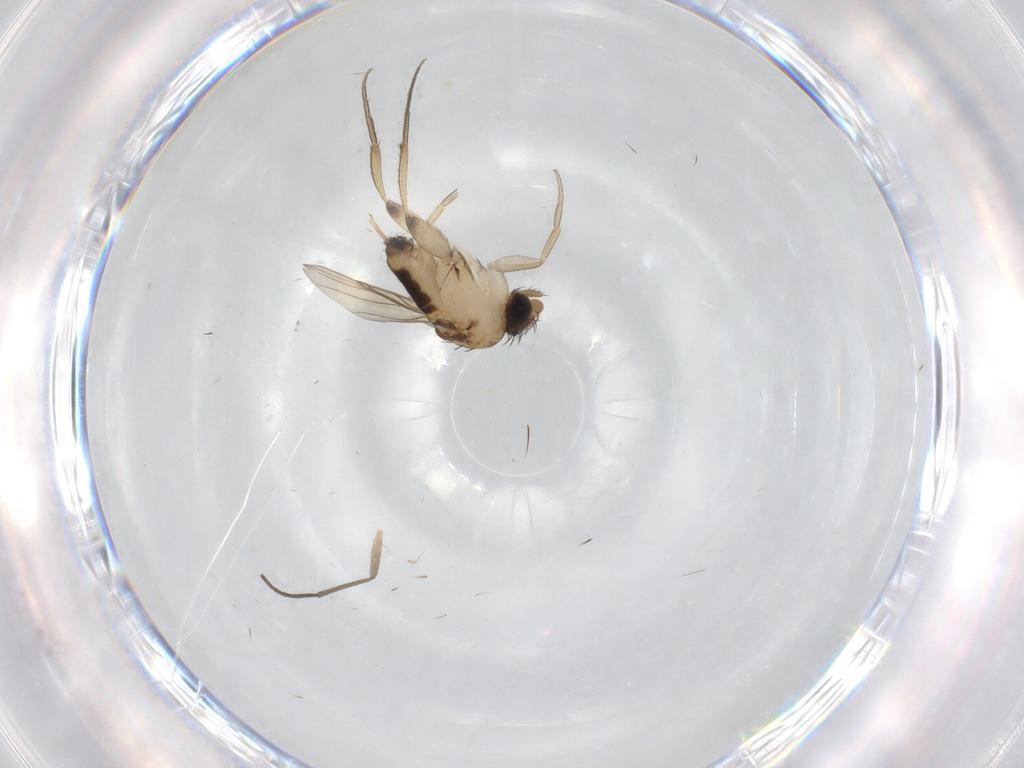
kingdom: Animalia
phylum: Arthropoda
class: Insecta
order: Diptera
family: Phoridae
